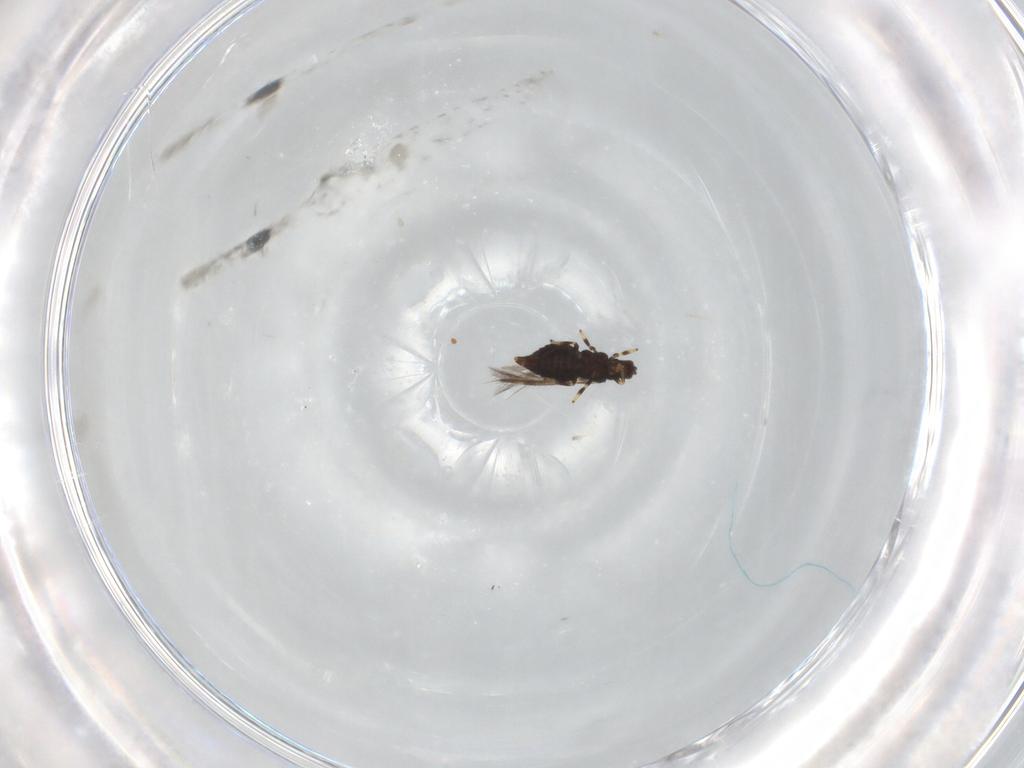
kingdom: Animalia
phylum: Arthropoda
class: Insecta
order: Thysanoptera
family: Thripidae
